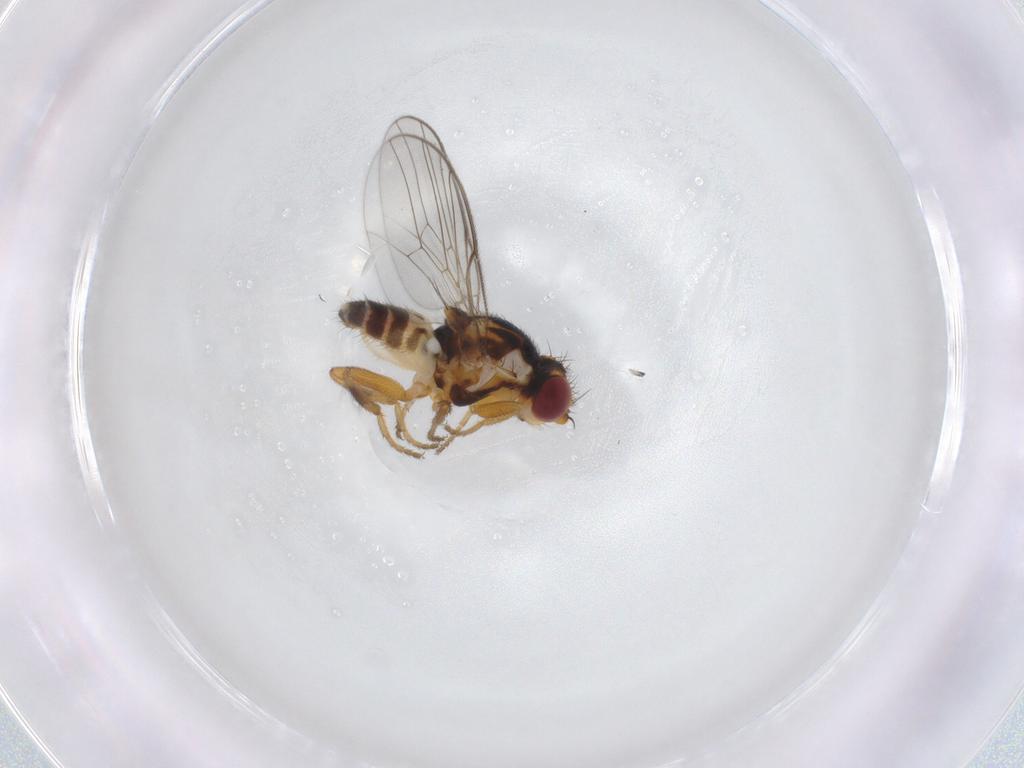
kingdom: Animalia
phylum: Arthropoda
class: Insecta
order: Diptera
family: Chloropidae
